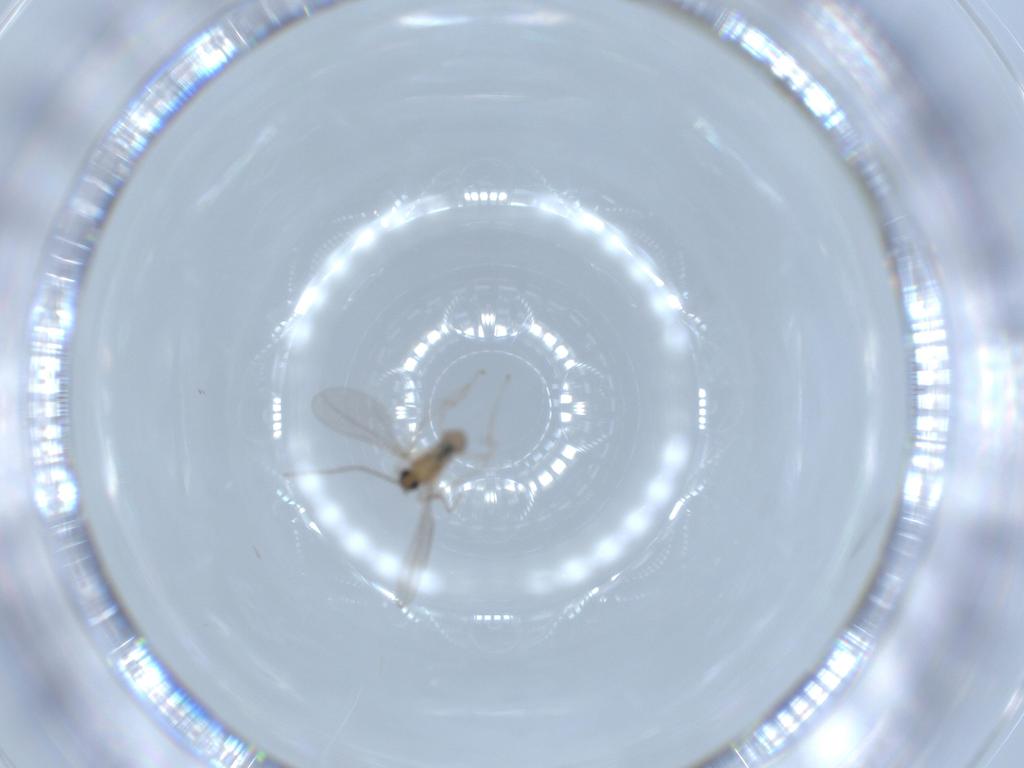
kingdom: Animalia
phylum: Arthropoda
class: Insecta
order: Diptera
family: Cecidomyiidae
